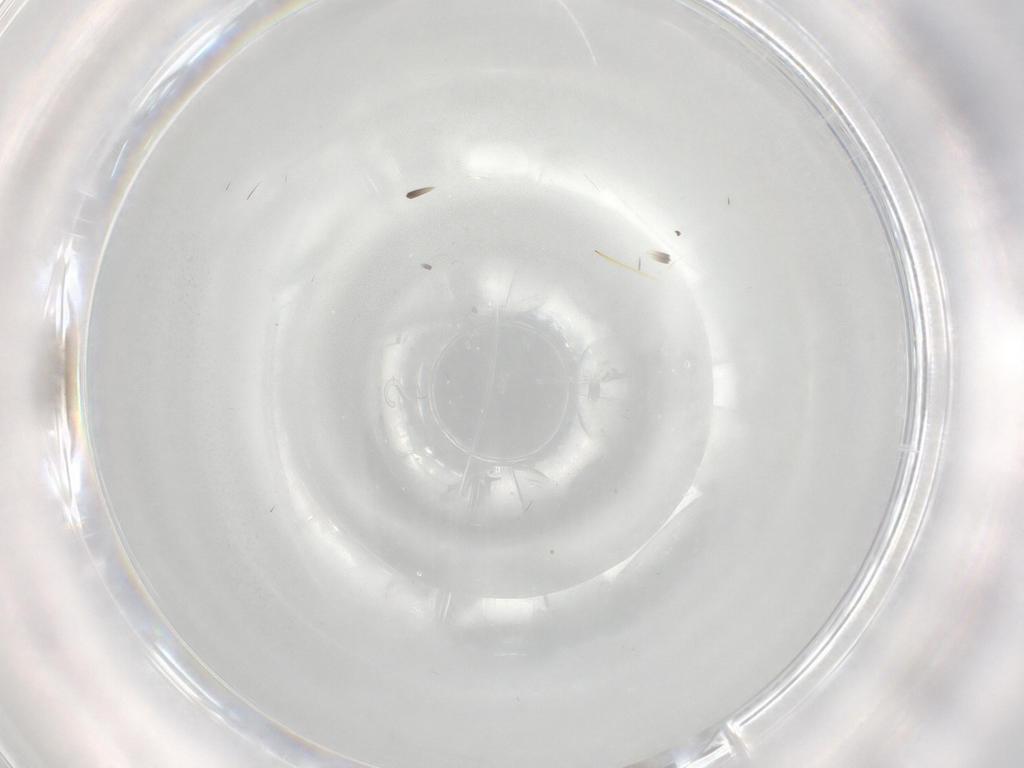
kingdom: Animalia
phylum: Arthropoda
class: Insecta
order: Diptera
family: Cecidomyiidae
